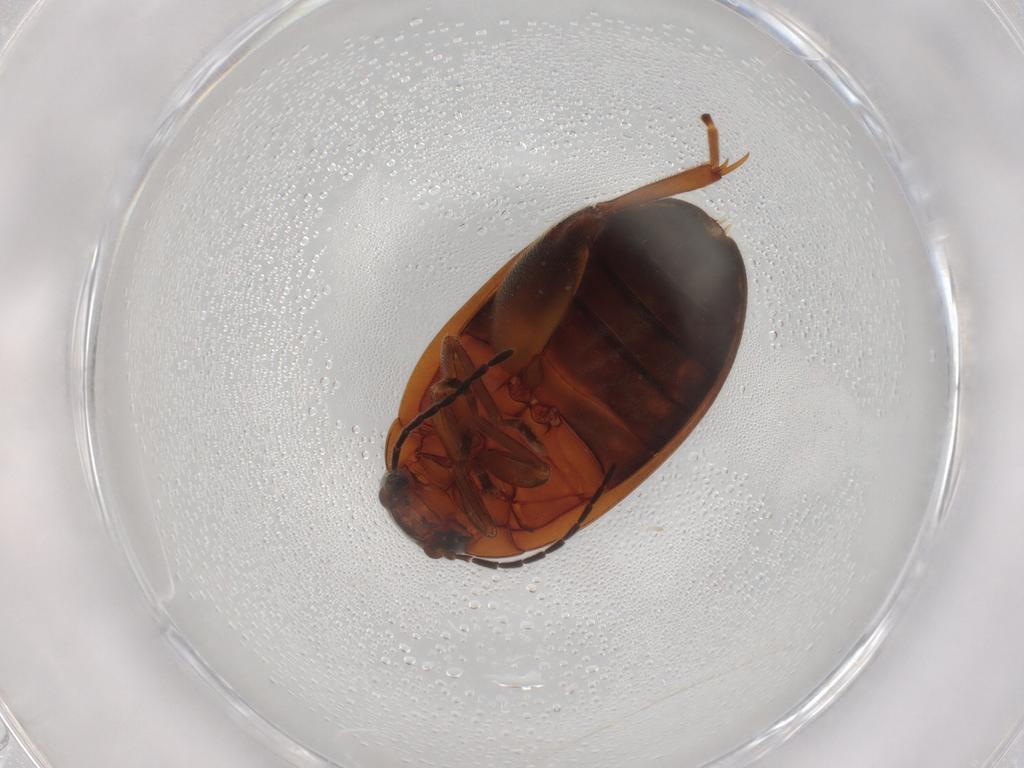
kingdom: Animalia
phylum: Arthropoda
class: Insecta
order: Coleoptera
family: Scirtidae
